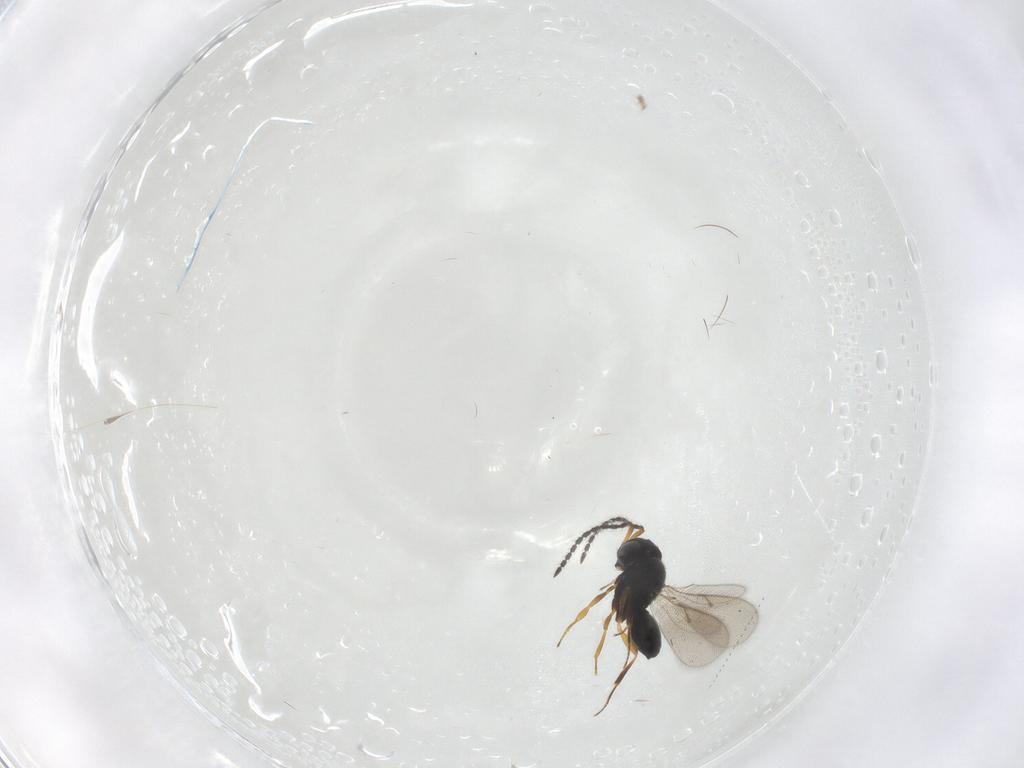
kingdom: Animalia
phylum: Arthropoda
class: Insecta
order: Hymenoptera
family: Scelionidae
